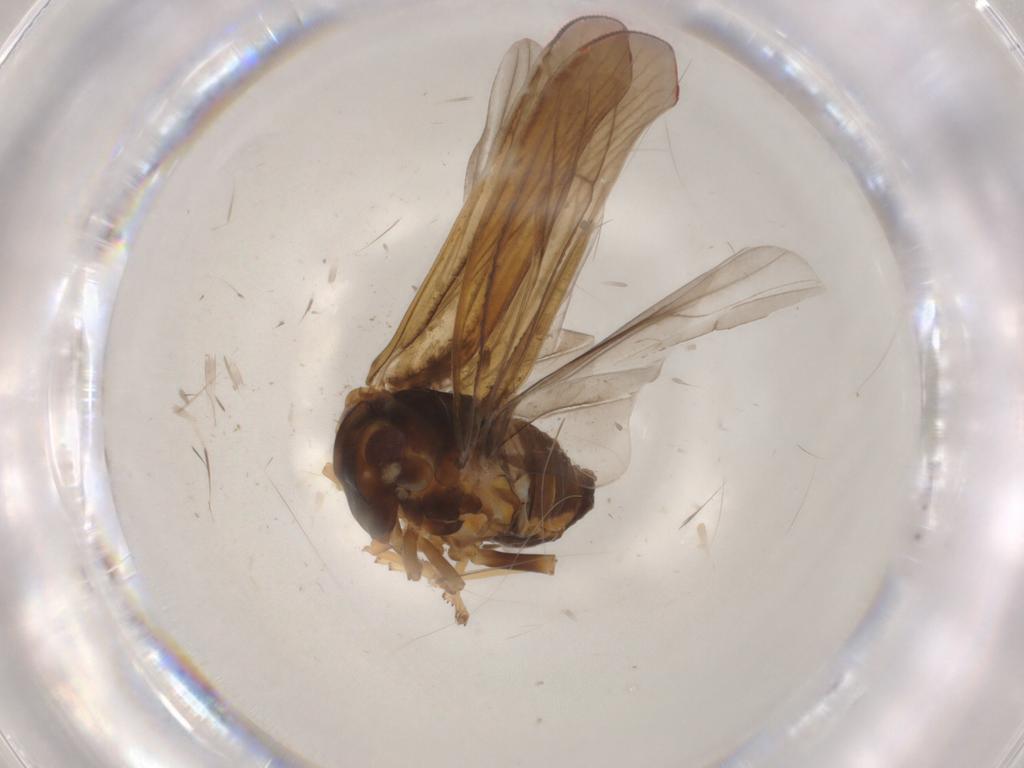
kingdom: Animalia
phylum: Arthropoda
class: Insecta
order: Hemiptera
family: Derbidae
